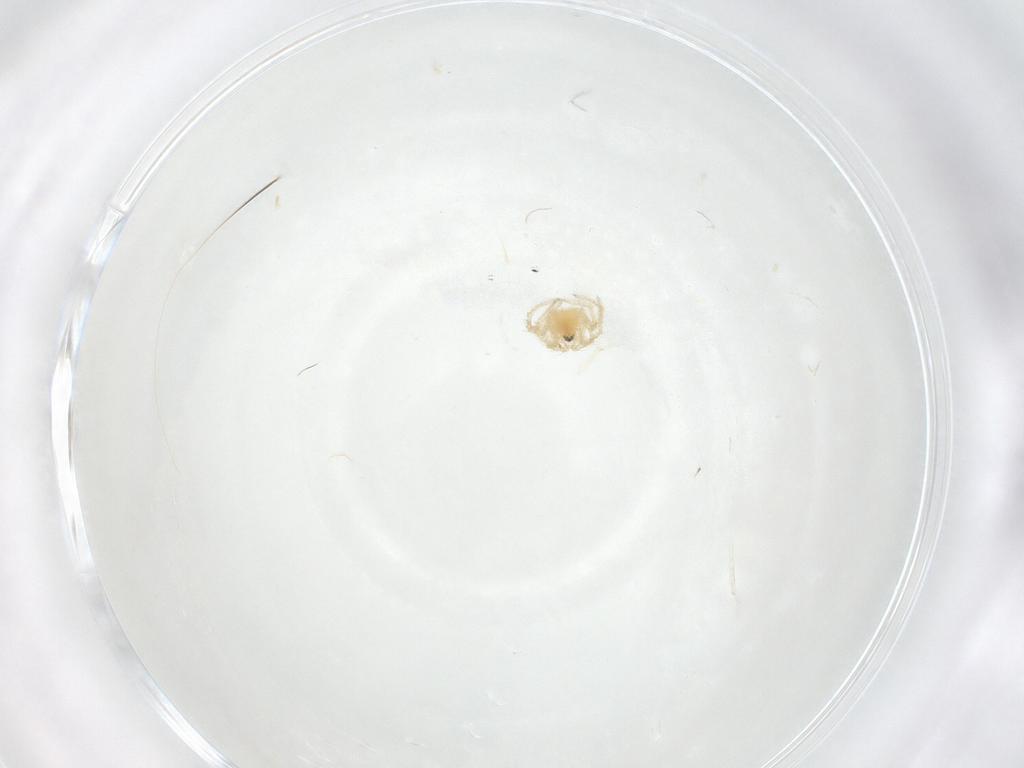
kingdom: Animalia
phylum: Arthropoda
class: Arachnida
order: Araneae
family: Linyphiidae
